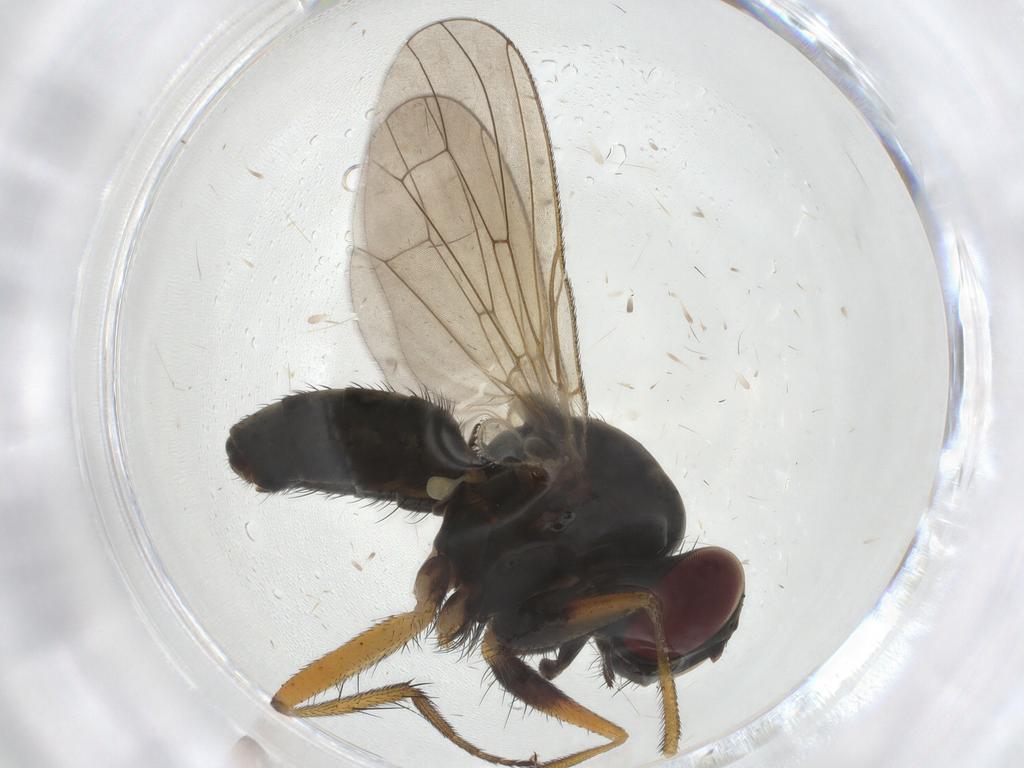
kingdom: Animalia
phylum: Arthropoda
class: Insecta
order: Diptera
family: Muscidae
